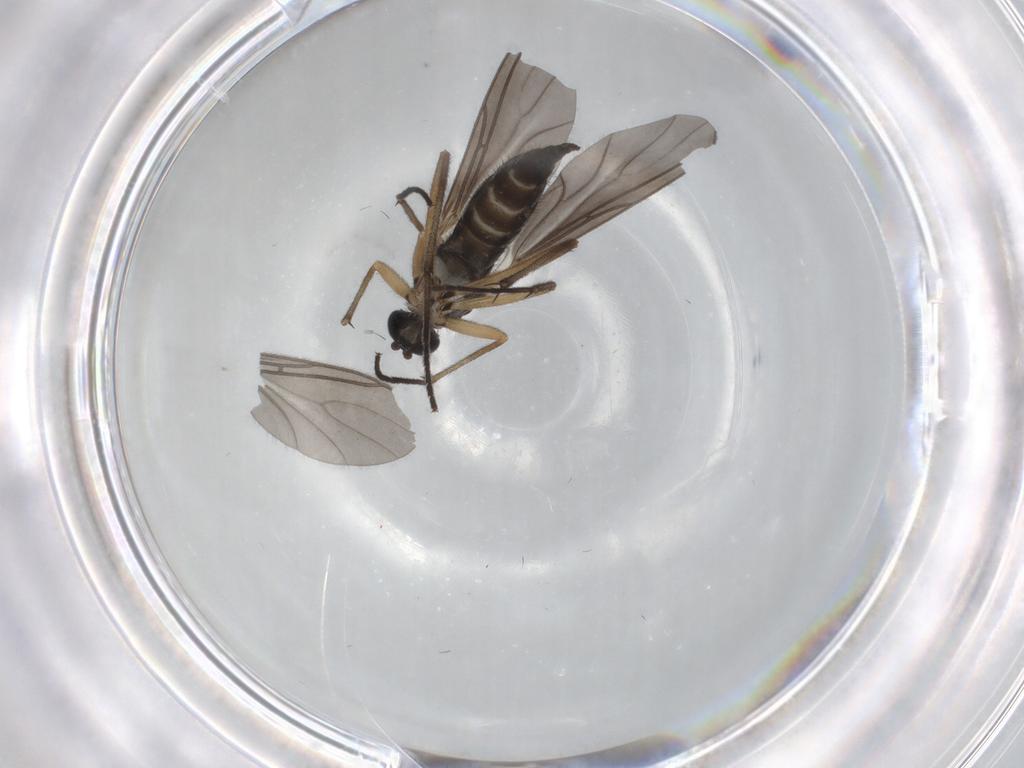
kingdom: Animalia
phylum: Arthropoda
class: Insecta
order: Diptera
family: Sciaridae
